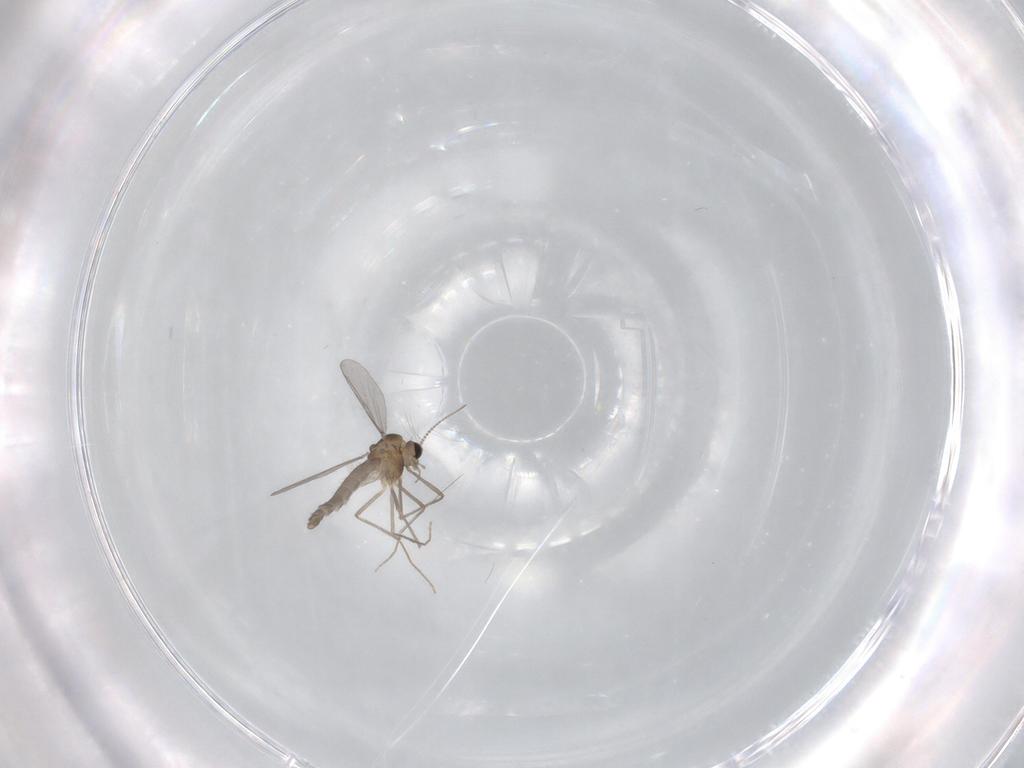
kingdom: Animalia
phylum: Arthropoda
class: Insecta
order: Diptera
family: Chironomidae
